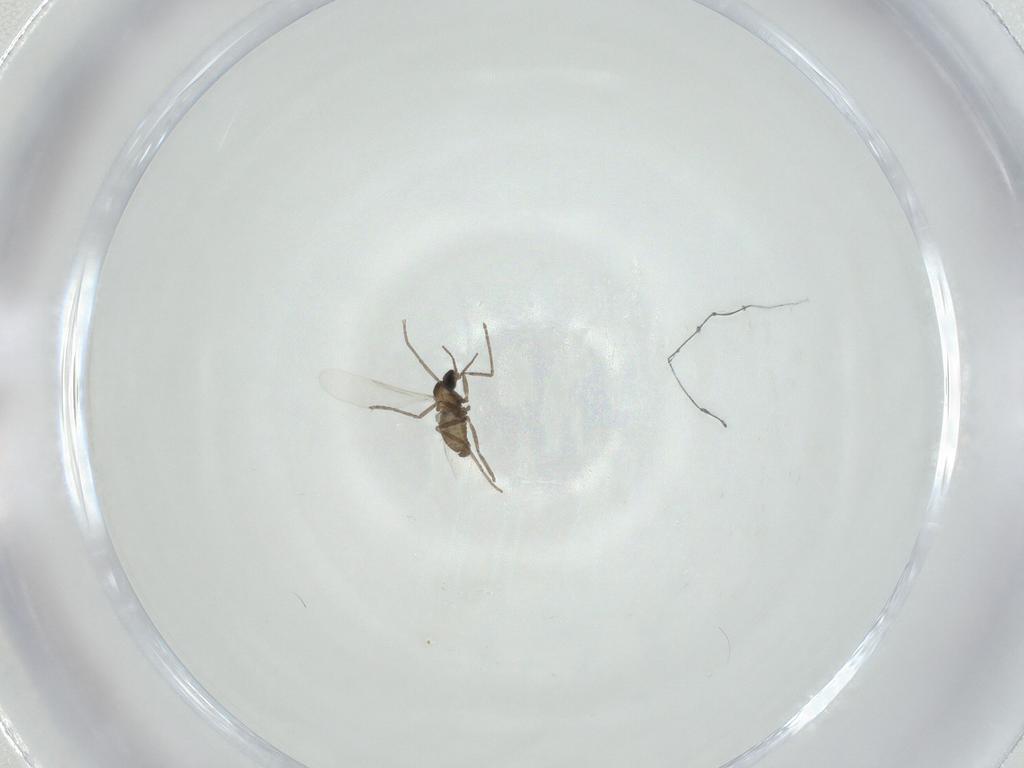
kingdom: Animalia
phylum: Arthropoda
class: Insecta
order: Diptera
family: Cecidomyiidae
